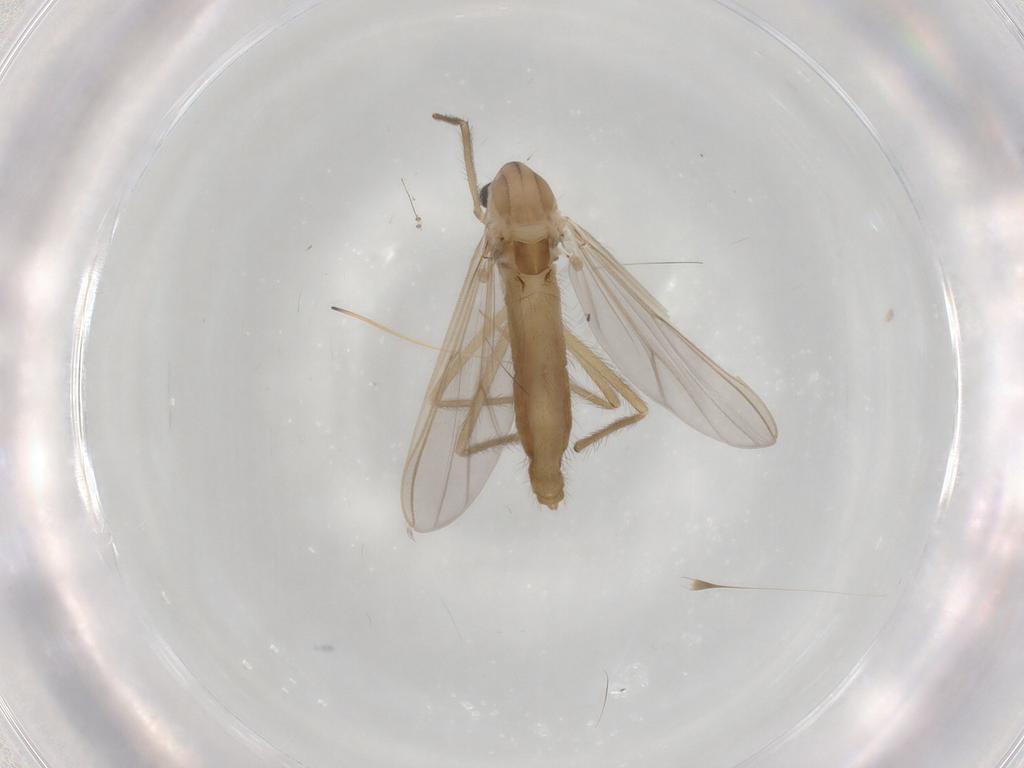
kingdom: Animalia
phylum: Arthropoda
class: Insecta
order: Diptera
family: Chironomidae
